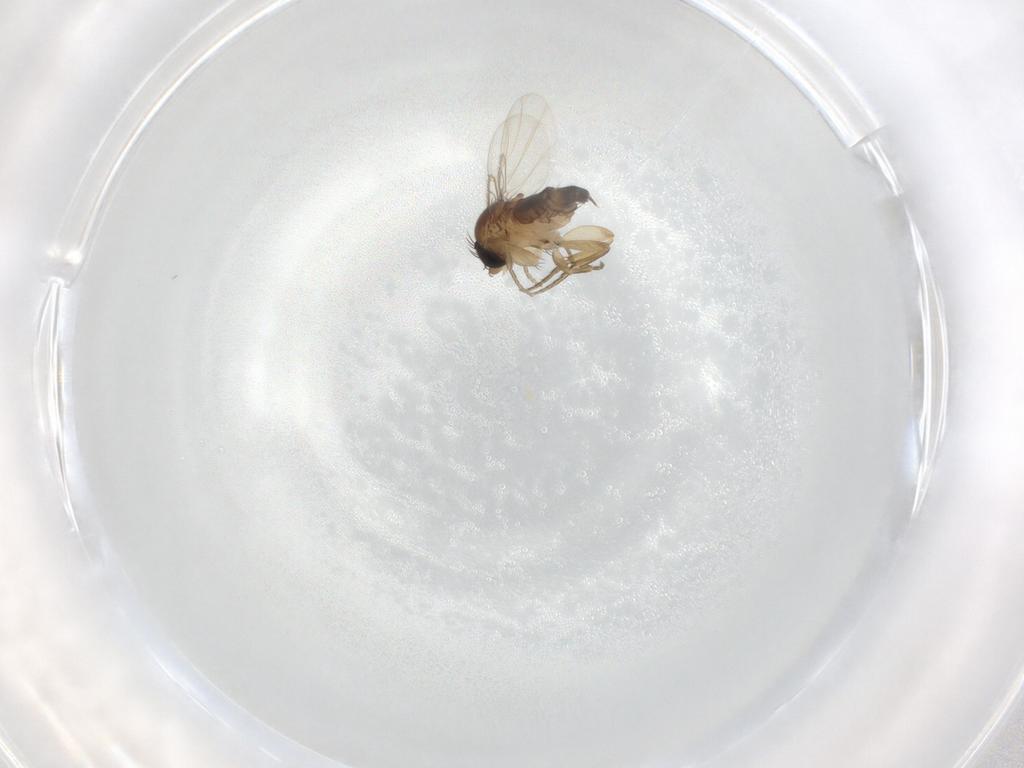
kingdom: Animalia
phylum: Arthropoda
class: Insecta
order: Diptera
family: Phoridae
